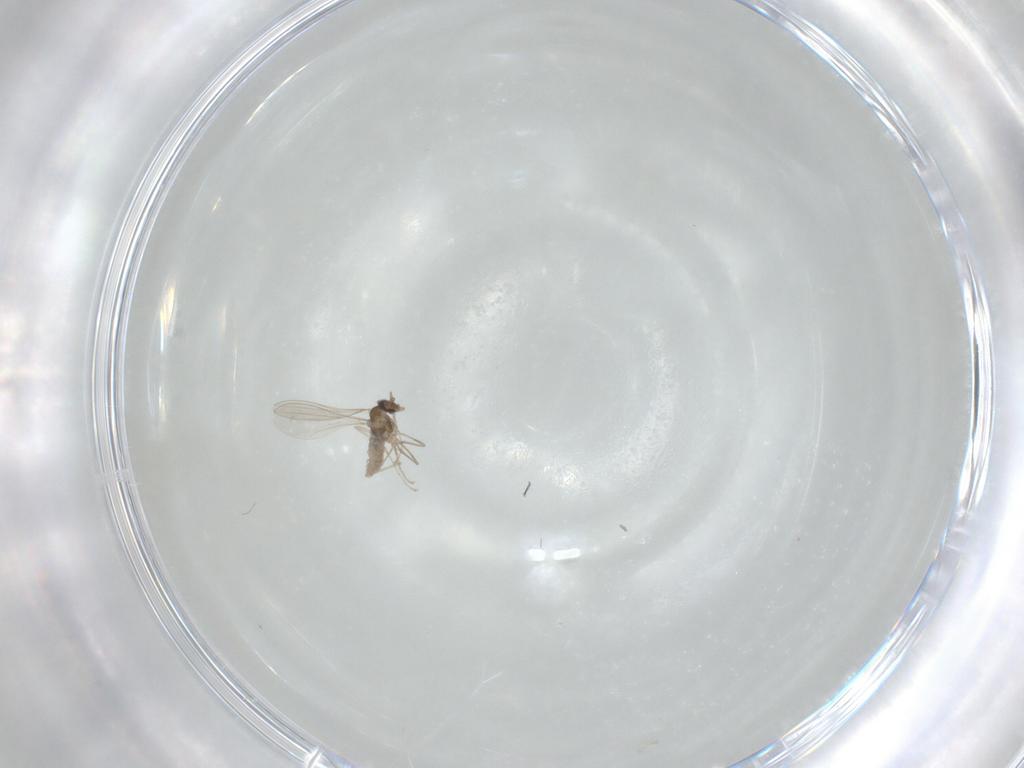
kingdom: Animalia
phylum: Arthropoda
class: Insecta
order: Diptera
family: Cecidomyiidae
